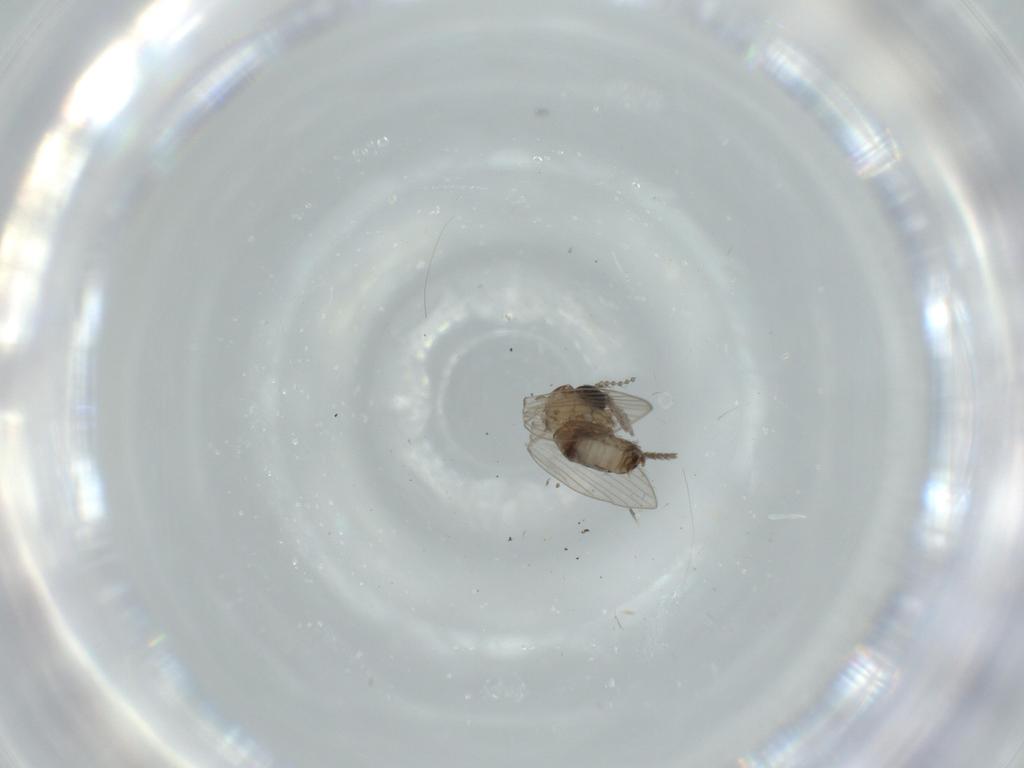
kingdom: Animalia
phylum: Arthropoda
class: Insecta
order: Diptera
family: Psychodidae
